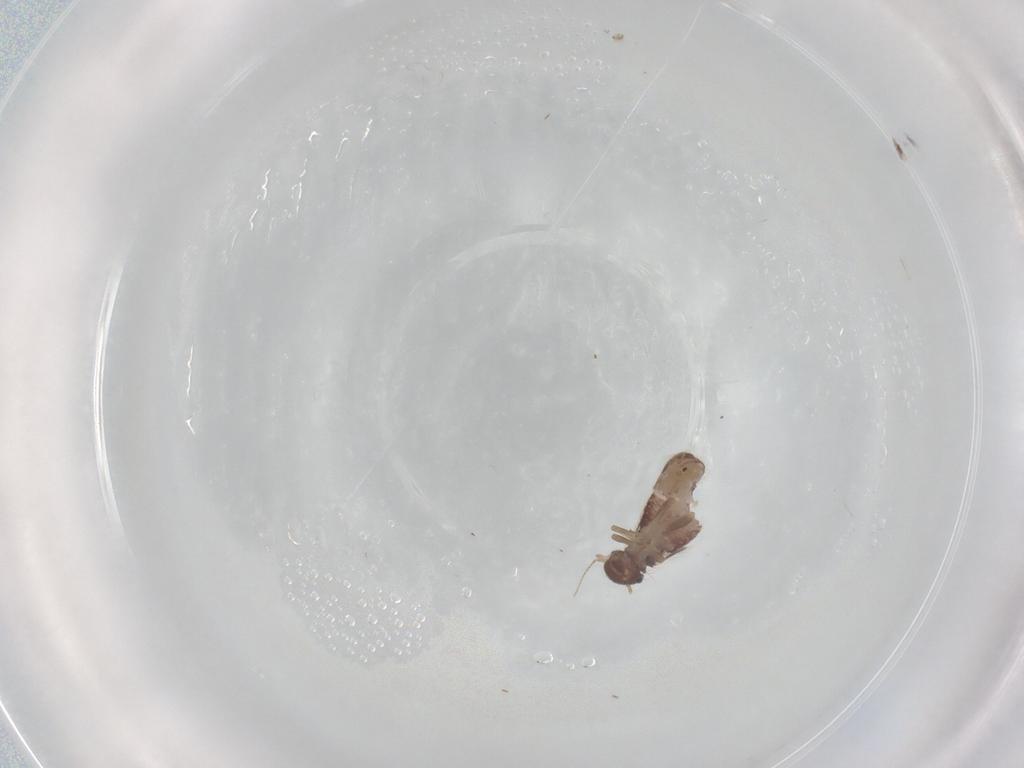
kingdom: Animalia
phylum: Arthropoda
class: Insecta
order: Psocodea
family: Archipsocidae
